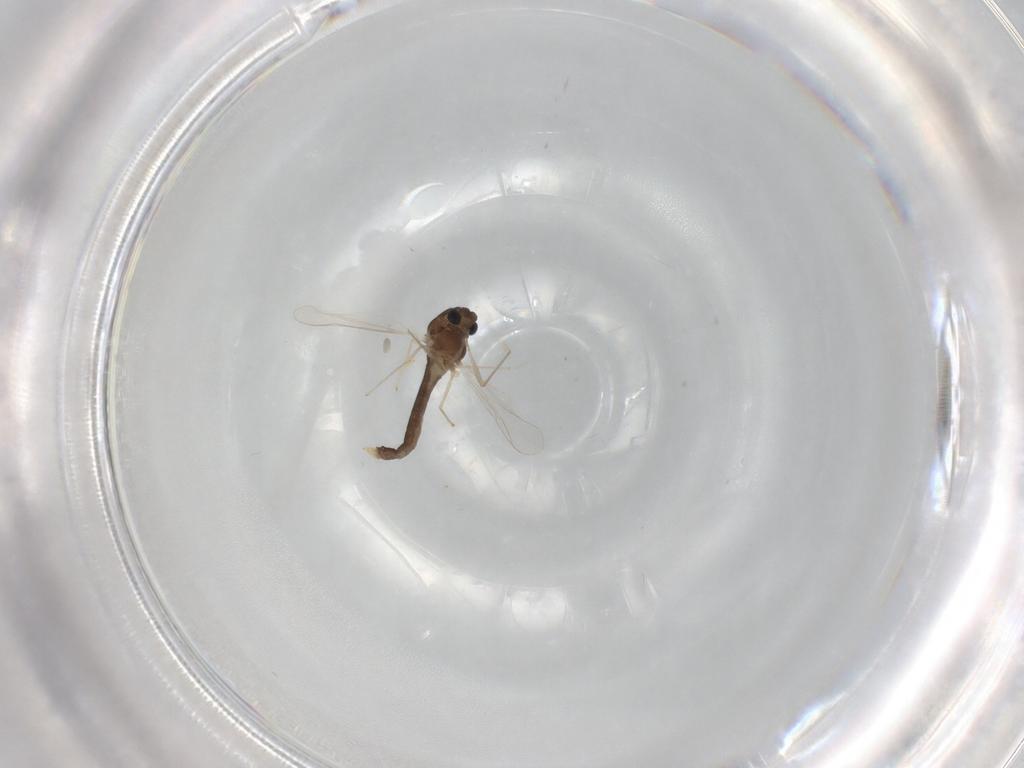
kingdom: Animalia
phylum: Arthropoda
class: Insecta
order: Diptera
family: Chironomidae
